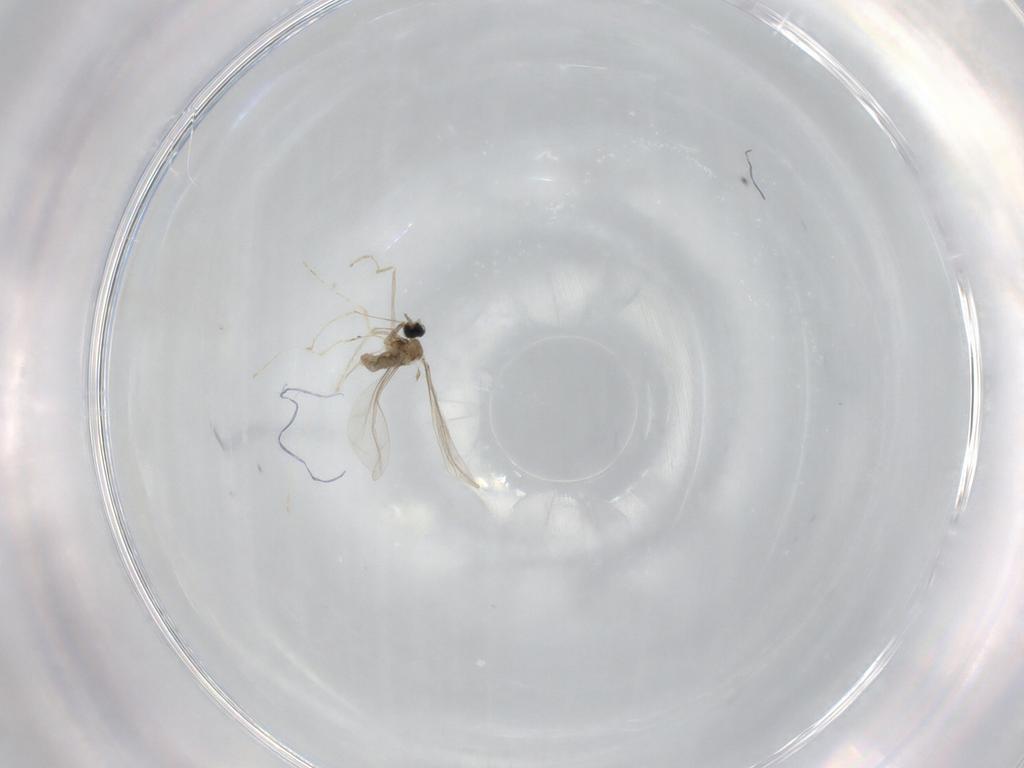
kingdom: Animalia
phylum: Arthropoda
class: Insecta
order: Diptera
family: Cecidomyiidae
